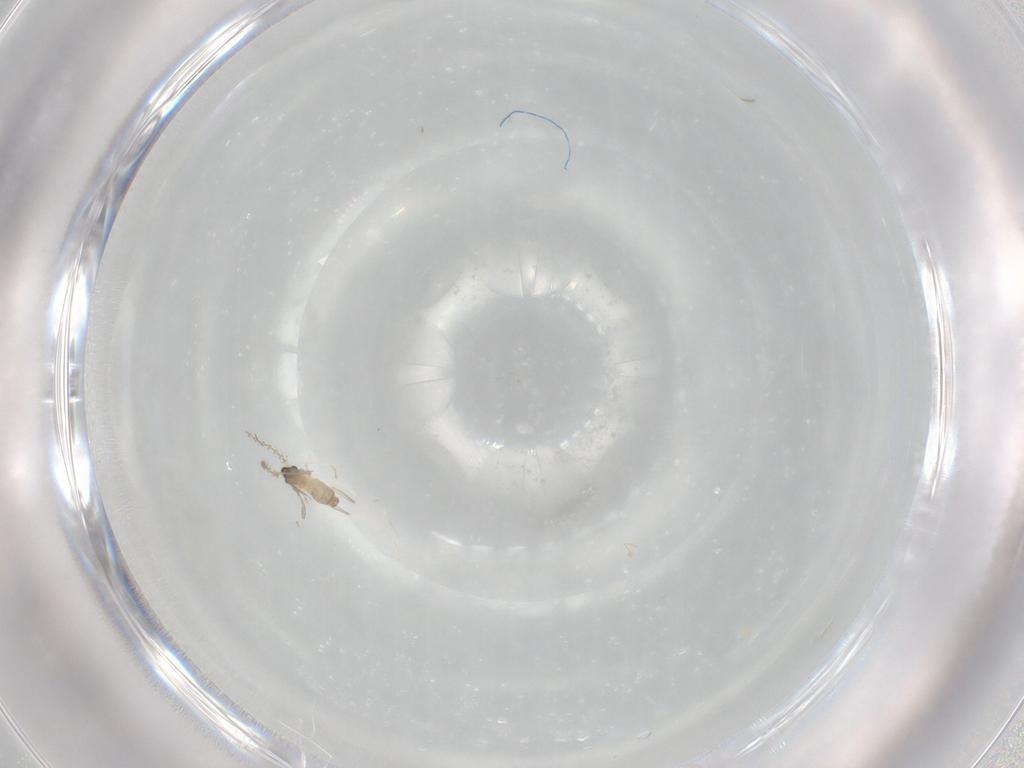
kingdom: Animalia
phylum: Arthropoda
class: Insecta
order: Diptera
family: Cecidomyiidae
